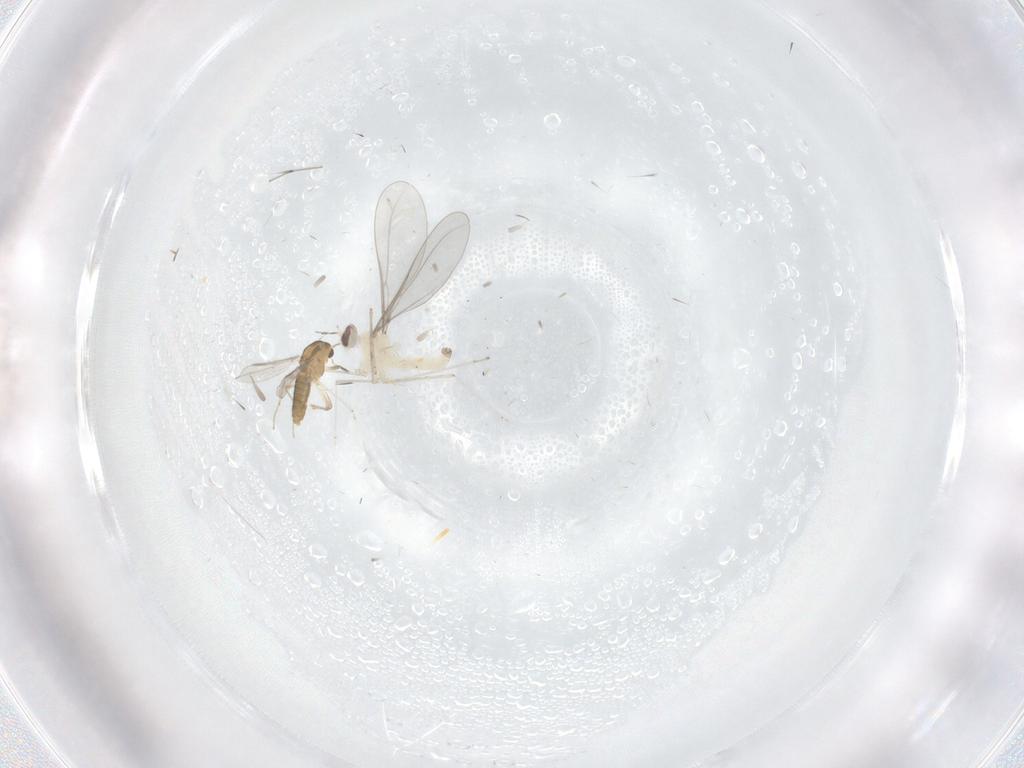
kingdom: Animalia
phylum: Arthropoda
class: Insecta
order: Diptera
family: Cecidomyiidae
